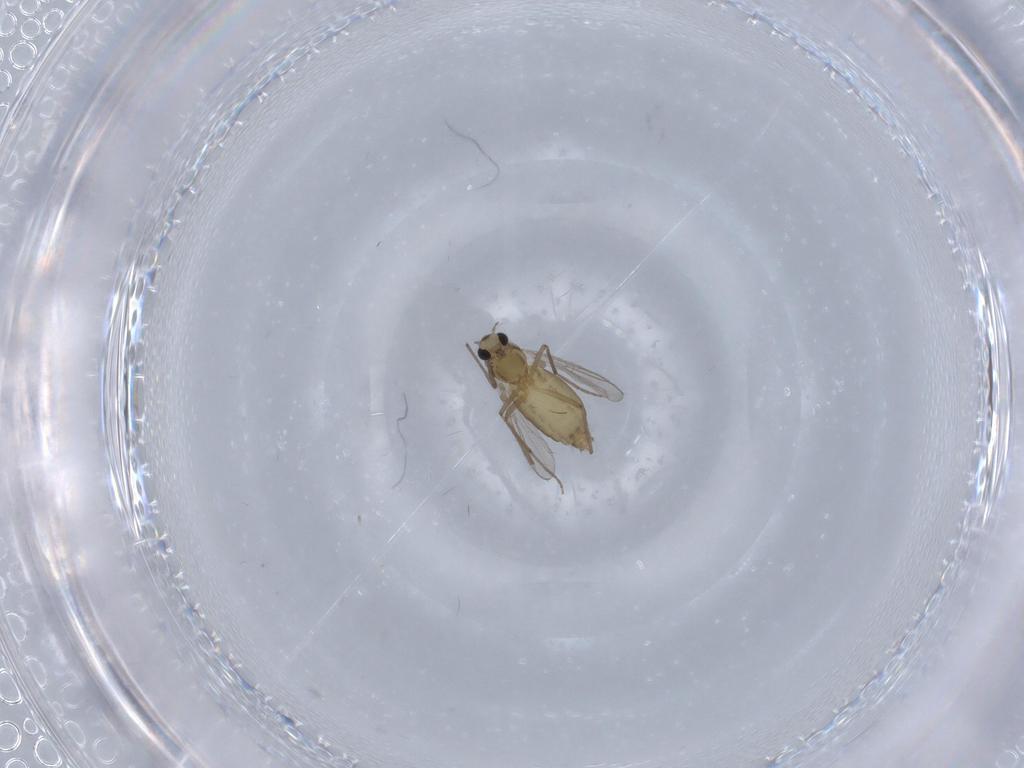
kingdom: Animalia
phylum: Arthropoda
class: Insecta
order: Diptera
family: Chironomidae
